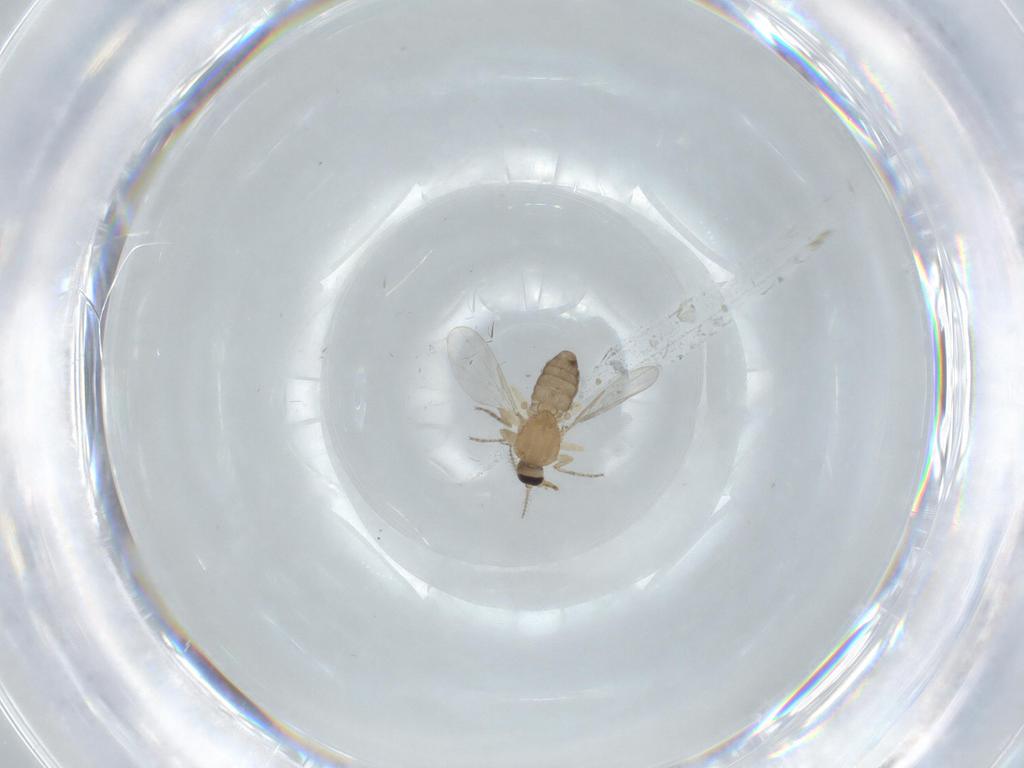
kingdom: Animalia
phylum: Arthropoda
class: Insecta
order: Diptera
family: Ceratopogonidae
